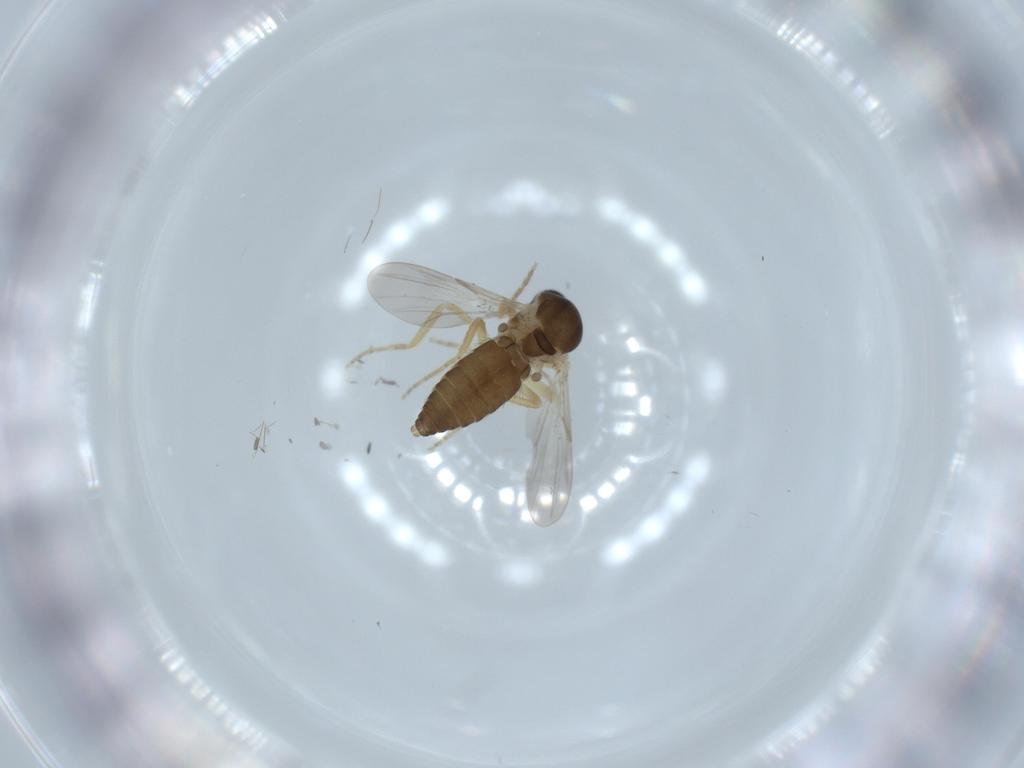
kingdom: Animalia
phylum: Arthropoda
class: Insecta
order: Diptera
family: Ceratopogonidae
